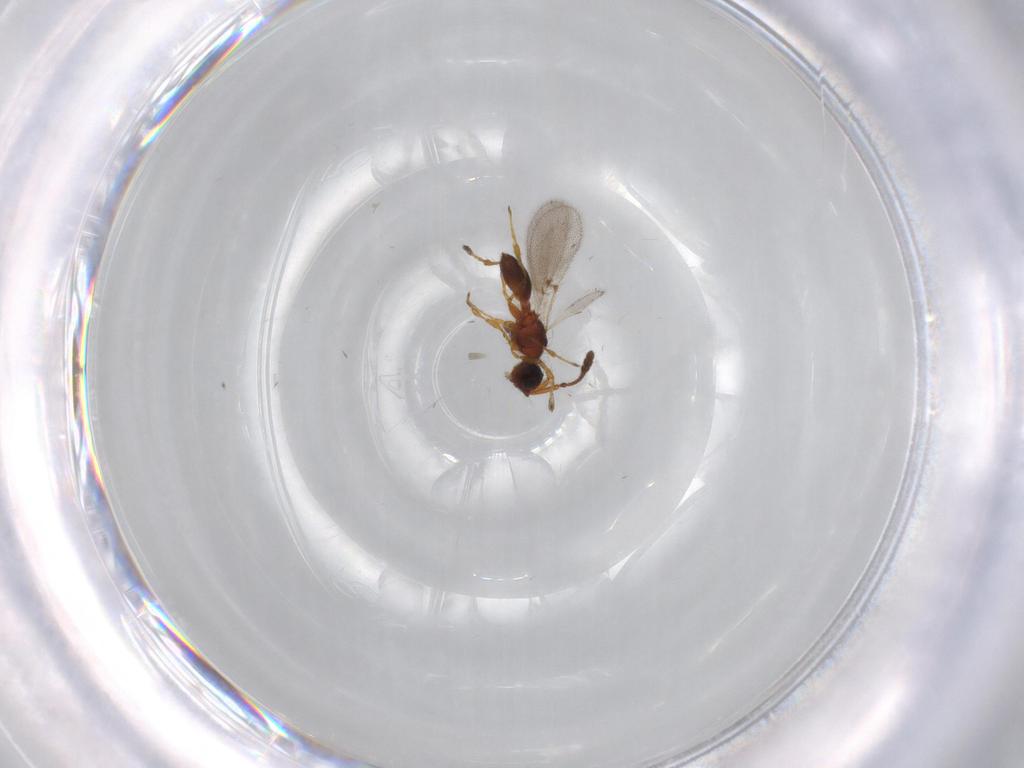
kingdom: Animalia
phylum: Arthropoda
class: Insecta
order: Hymenoptera
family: Diapriidae
